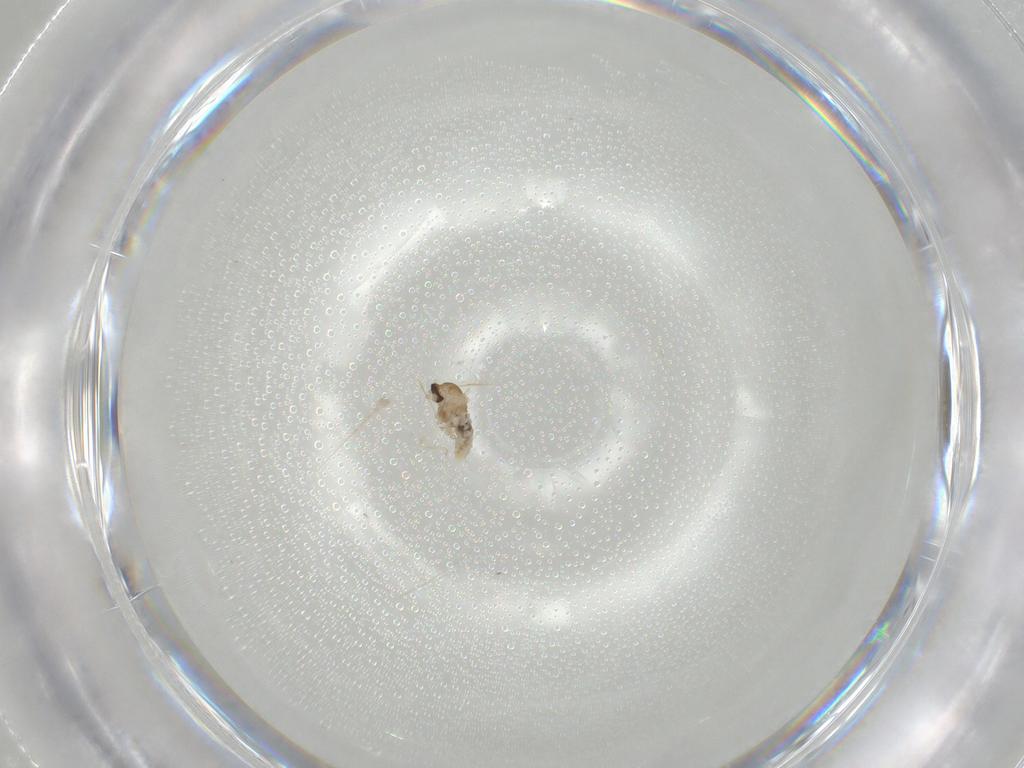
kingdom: Animalia
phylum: Arthropoda
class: Insecta
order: Diptera
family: Cecidomyiidae
